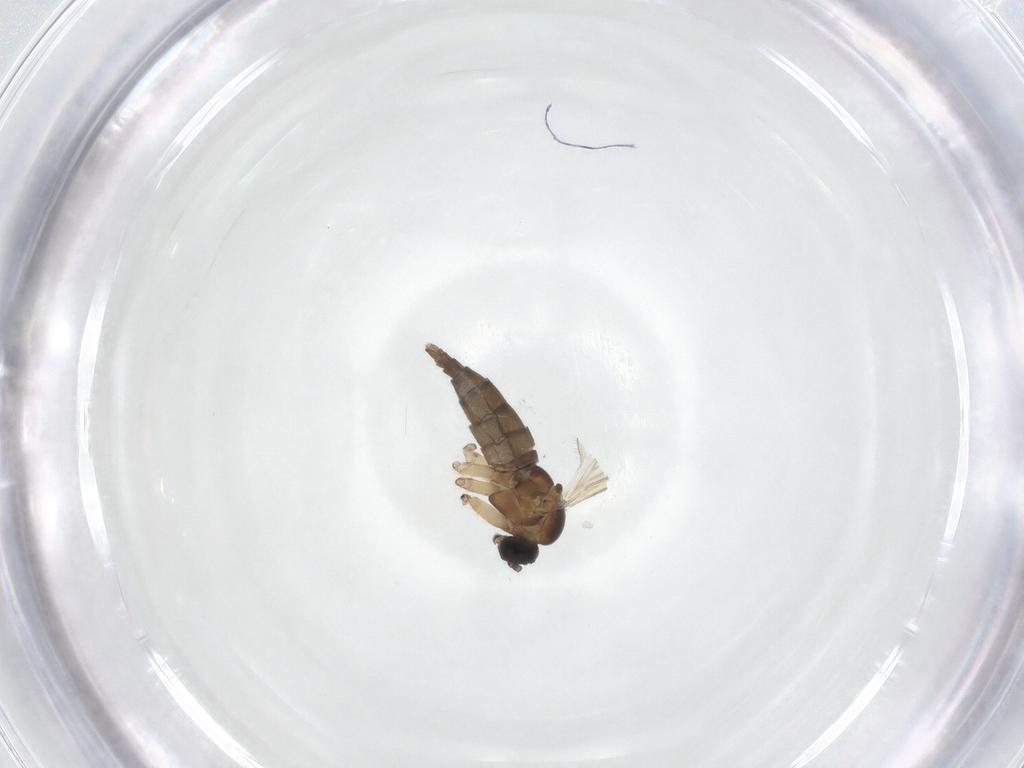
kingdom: Animalia
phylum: Arthropoda
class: Insecta
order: Diptera
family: Sciaridae
